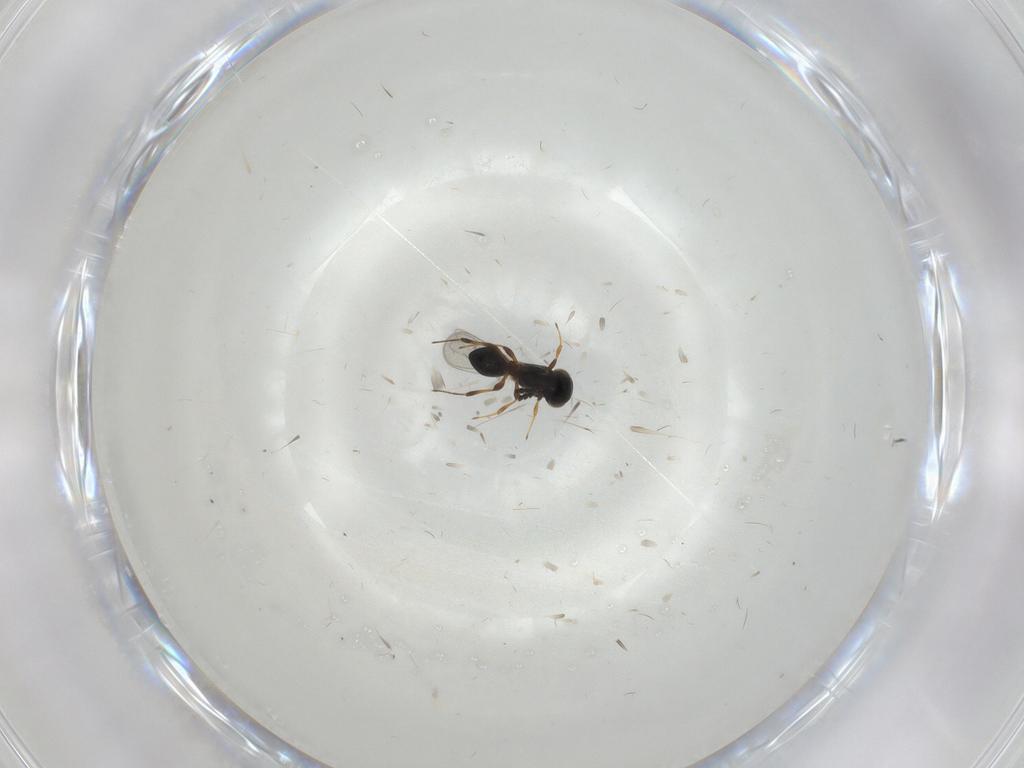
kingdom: Animalia
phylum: Arthropoda
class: Insecta
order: Hymenoptera
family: Platygastridae
